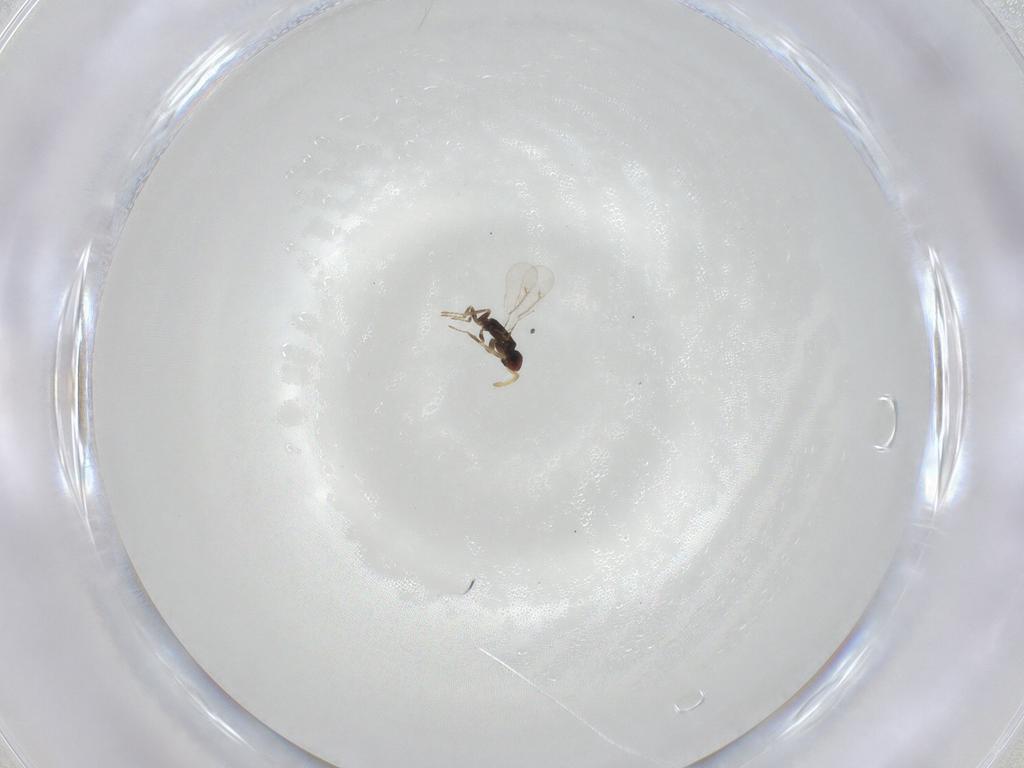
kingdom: Animalia
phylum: Arthropoda
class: Insecta
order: Hymenoptera
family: Eulophidae
